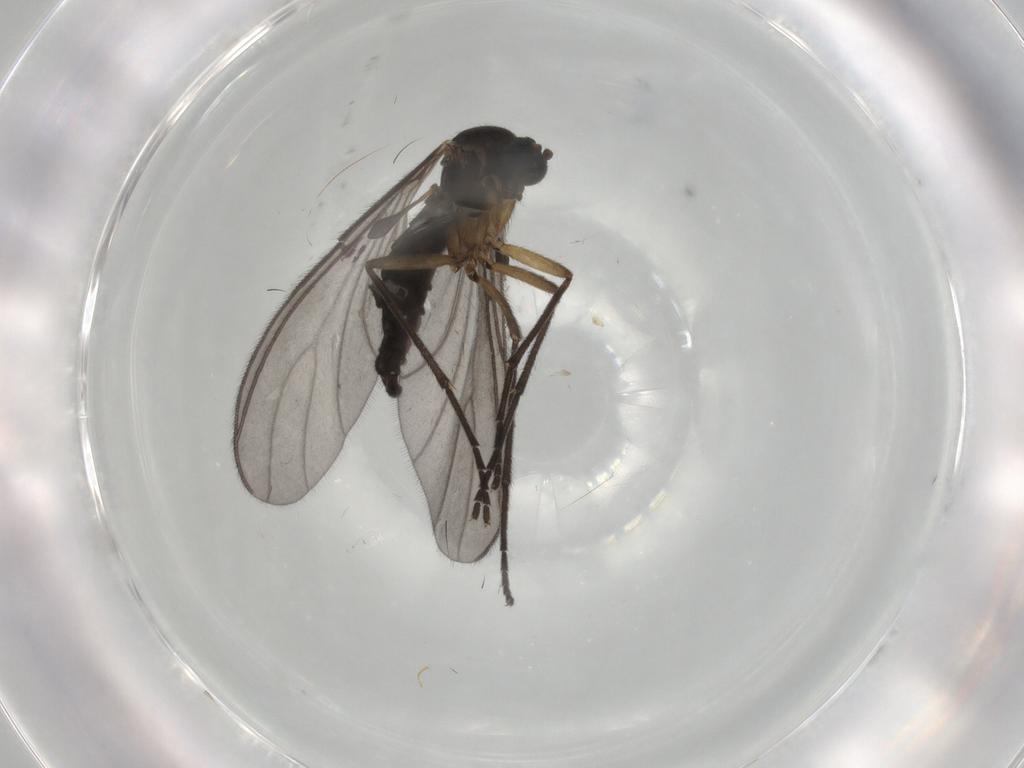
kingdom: Animalia
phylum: Arthropoda
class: Insecta
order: Diptera
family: Sciaridae
